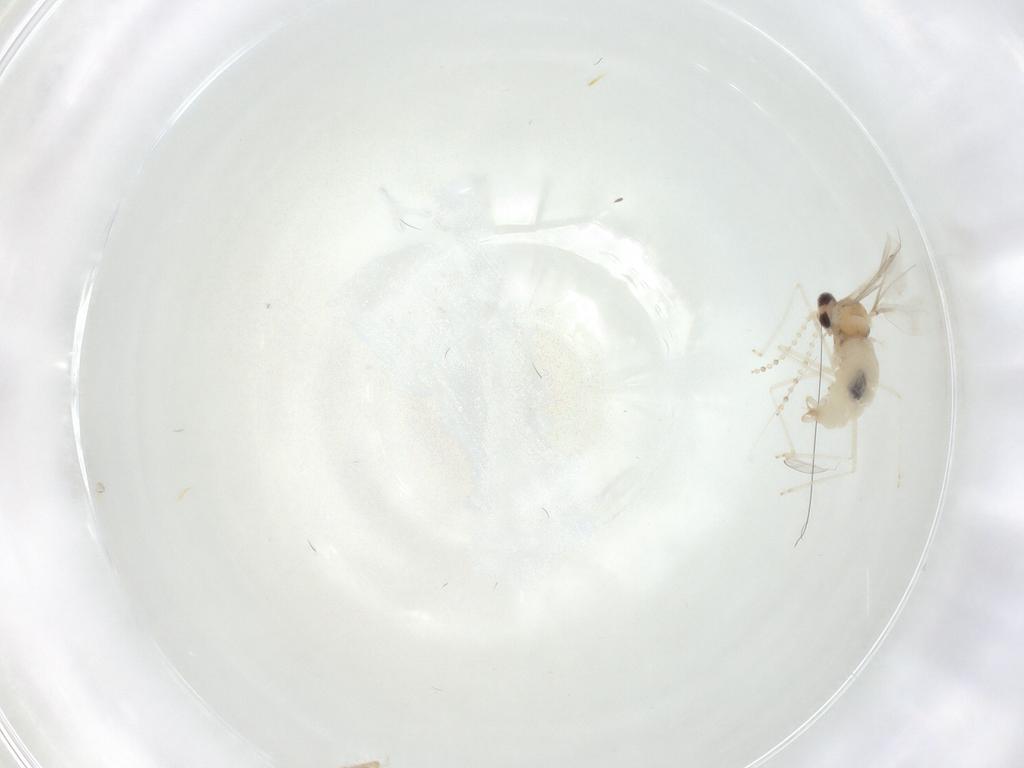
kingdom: Animalia
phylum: Arthropoda
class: Insecta
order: Diptera
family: Cecidomyiidae
